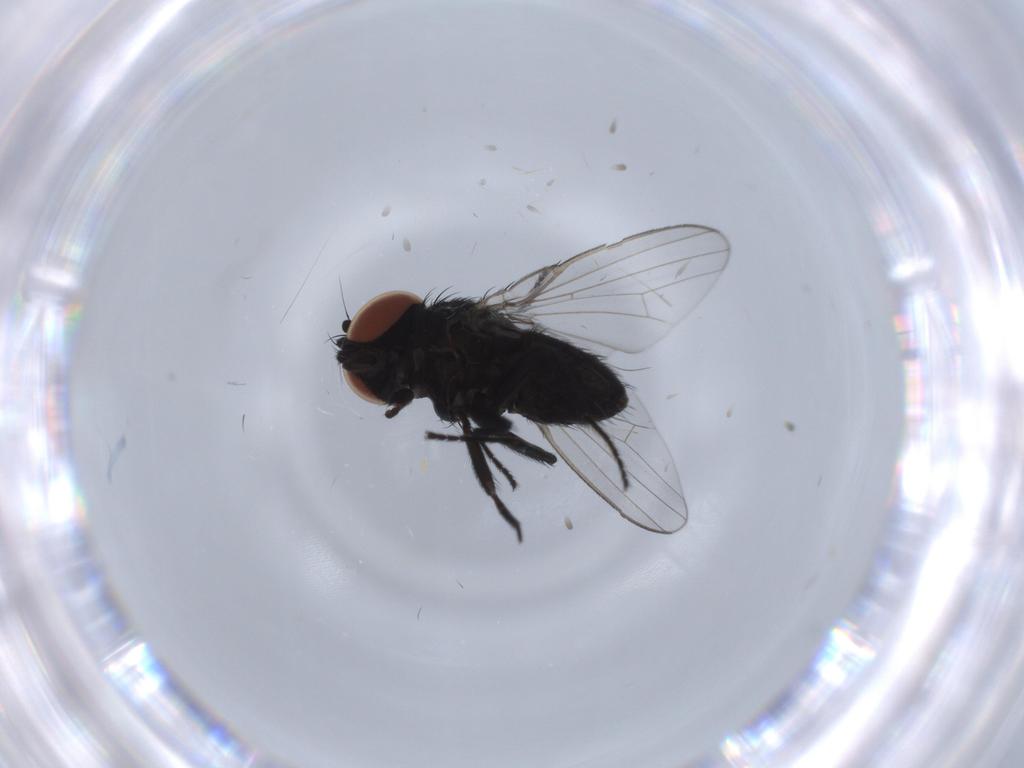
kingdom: Animalia
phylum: Arthropoda
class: Insecta
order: Diptera
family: Milichiidae
